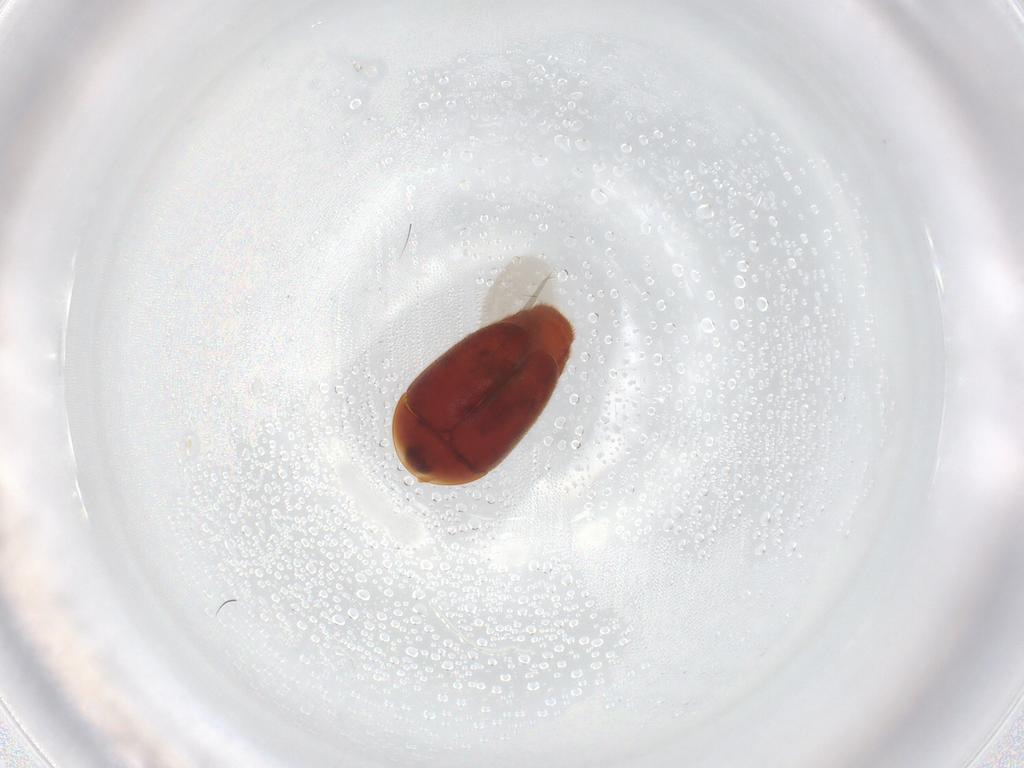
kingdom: Animalia
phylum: Arthropoda
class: Insecta
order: Coleoptera
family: Corylophidae
